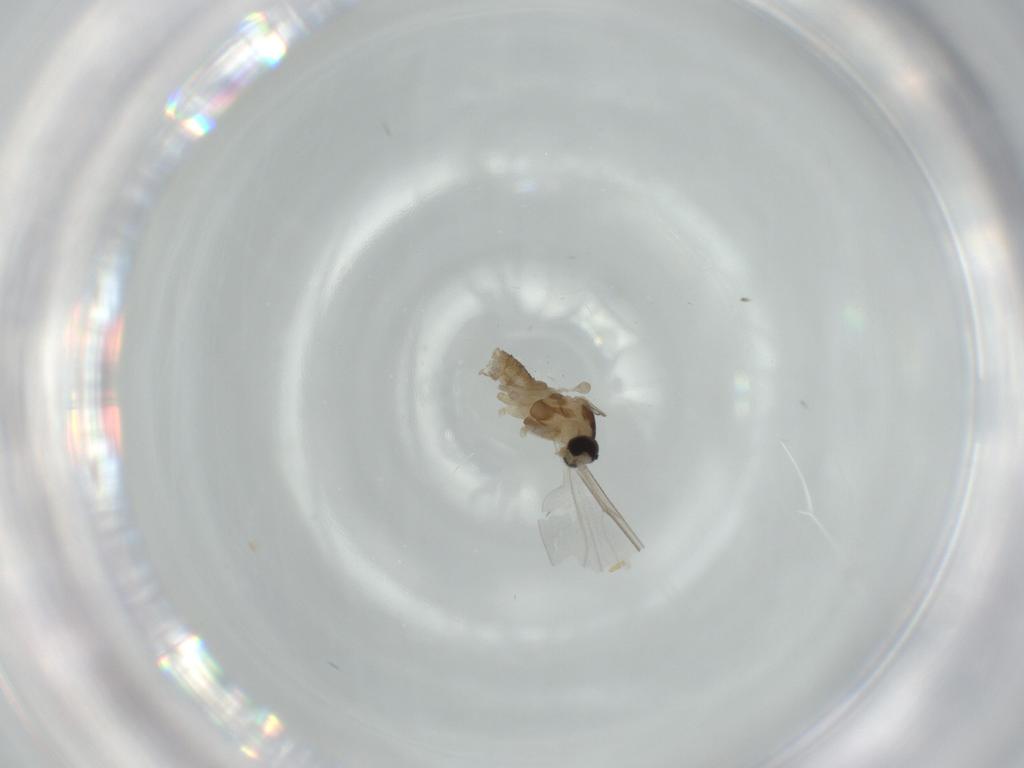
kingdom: Animalia
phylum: Arthropoda
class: Insecta
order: Diptera
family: Cecidomyiidae
